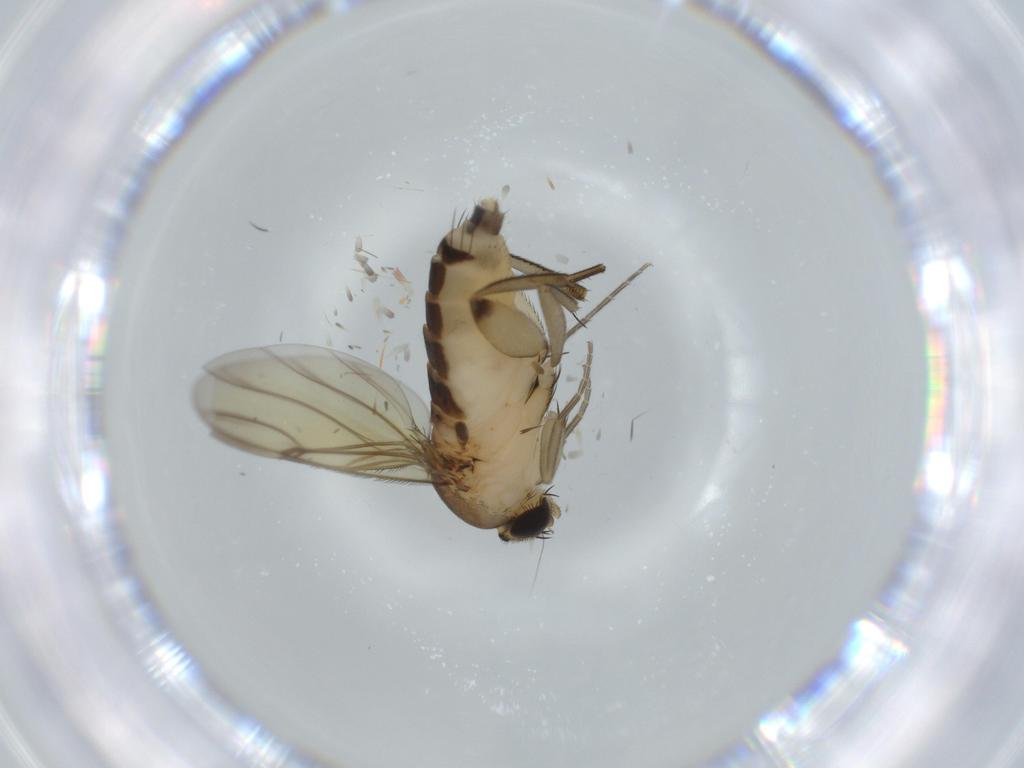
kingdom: Animalia
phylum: Arthropoda
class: Insecta
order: Diptera
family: Phoridae
